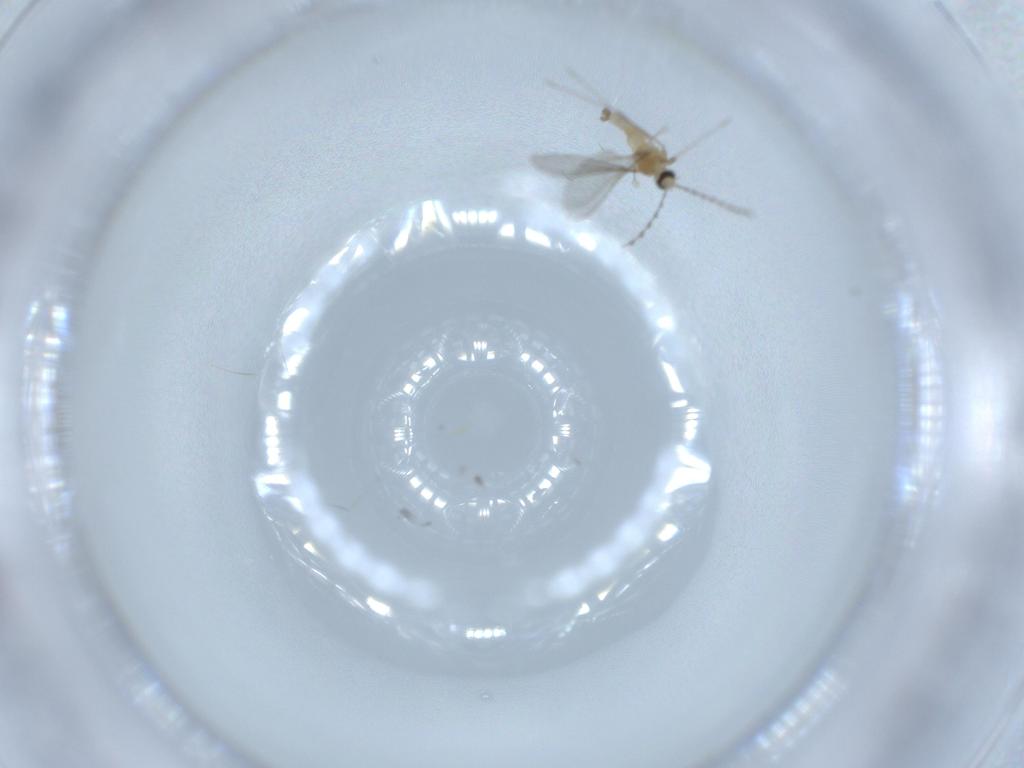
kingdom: Animalia
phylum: Arthropoda
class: Insecta
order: Diptera
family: Cecidomyiidae
